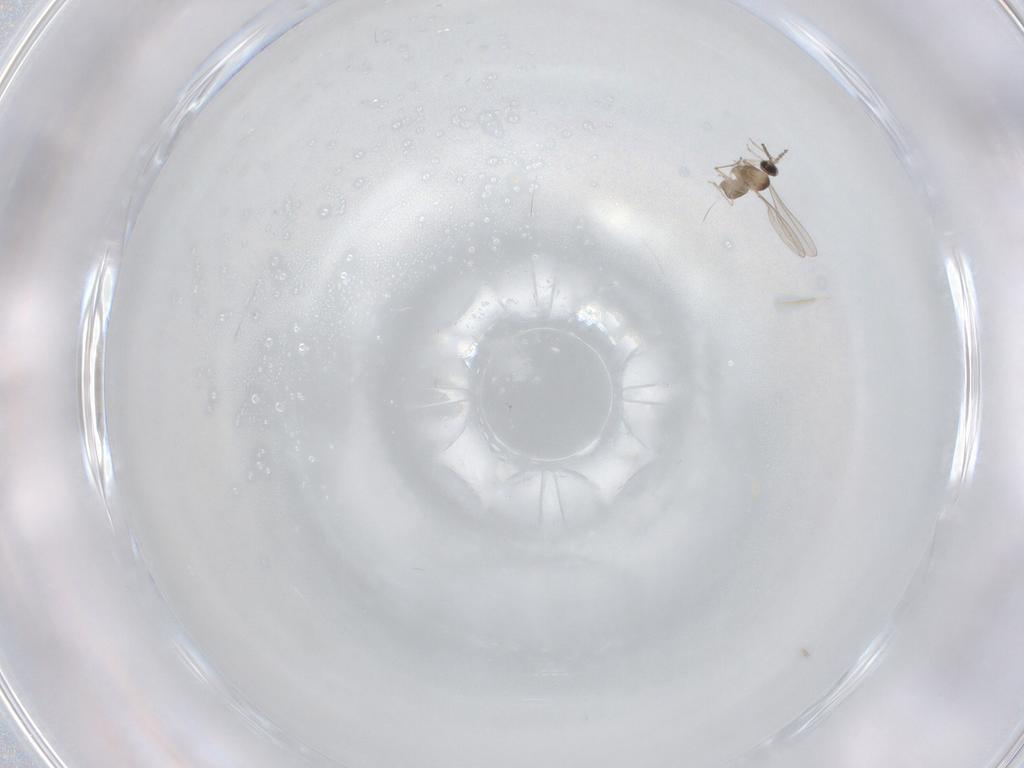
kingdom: Animalia
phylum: Arthropoda
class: Insecta
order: Diptera
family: Cecidomyiidae
